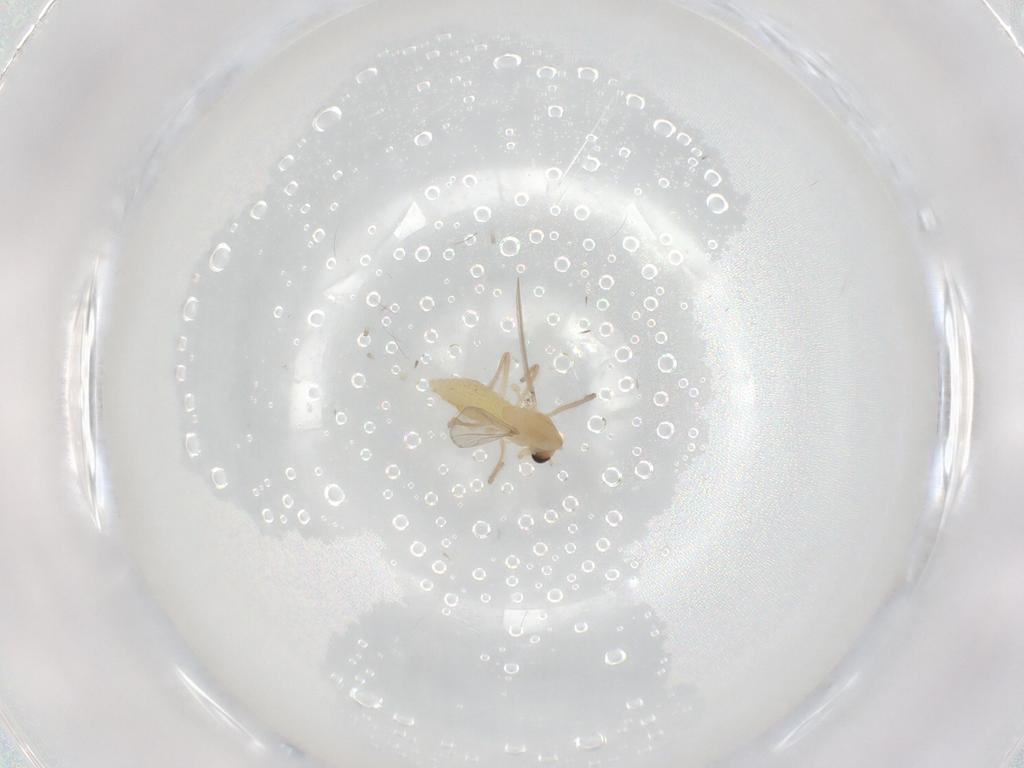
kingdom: Animalia
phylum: Arthropoda
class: Insecta
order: Diptera
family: Dolichopodidae
